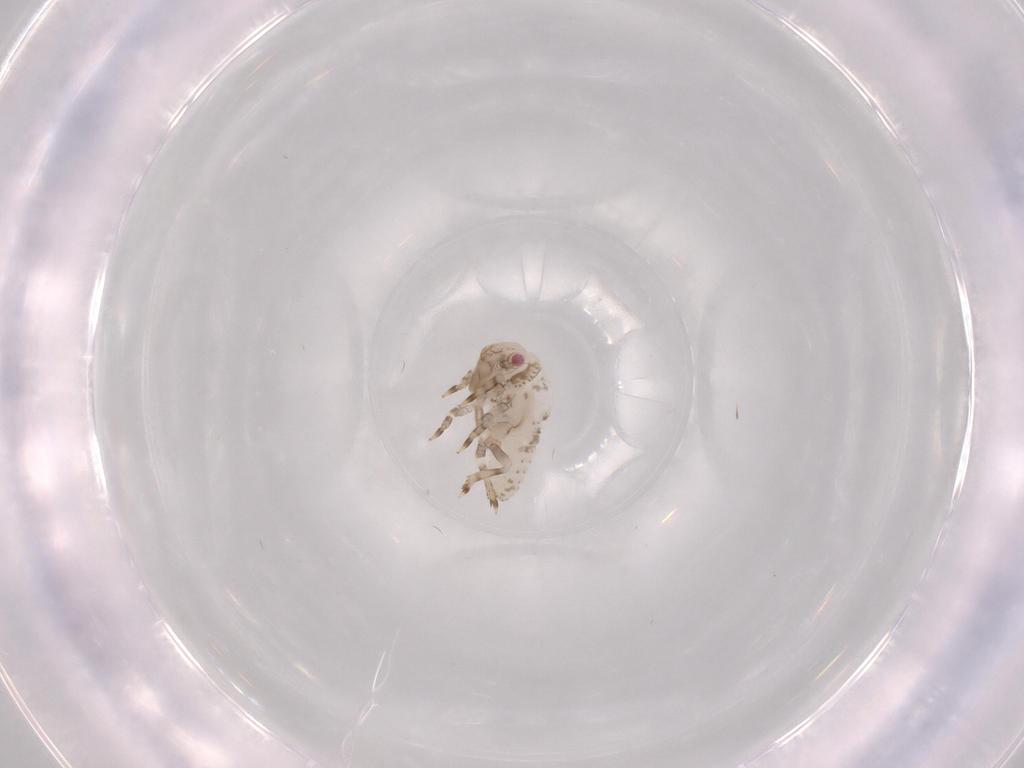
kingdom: Animalia
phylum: Arthropoda
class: Insecta
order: Hemiptera
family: Acanaloniidae
